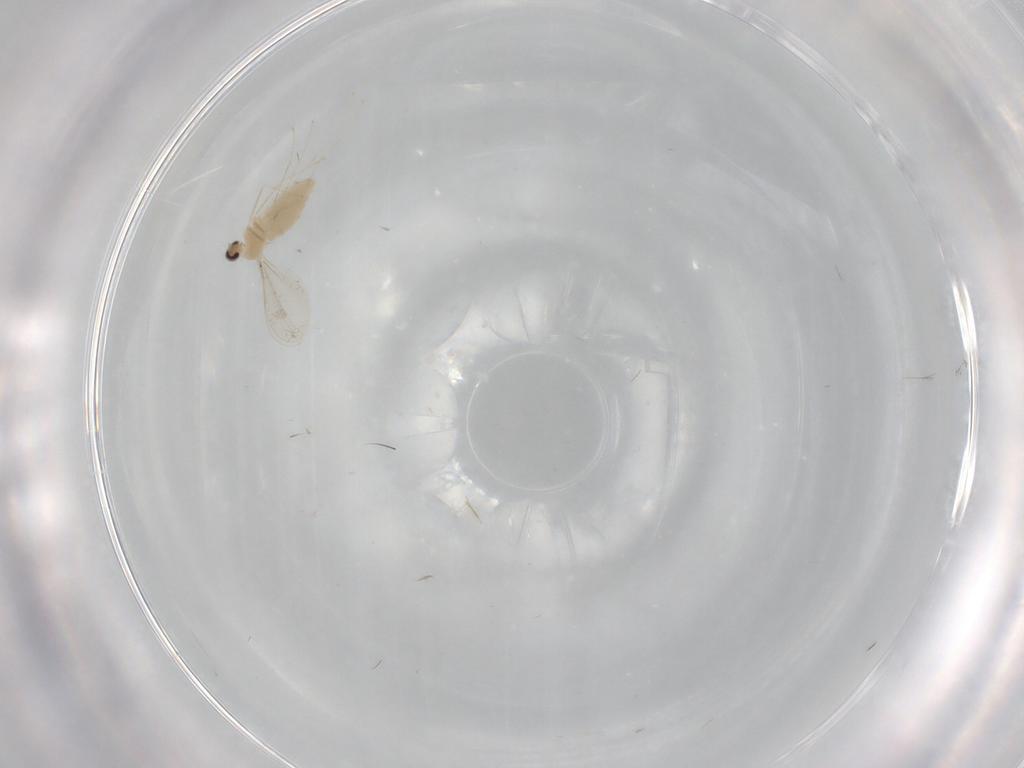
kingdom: Animalia
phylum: Arthropoda
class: Insecta
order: Diptera
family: Drosophilidae
